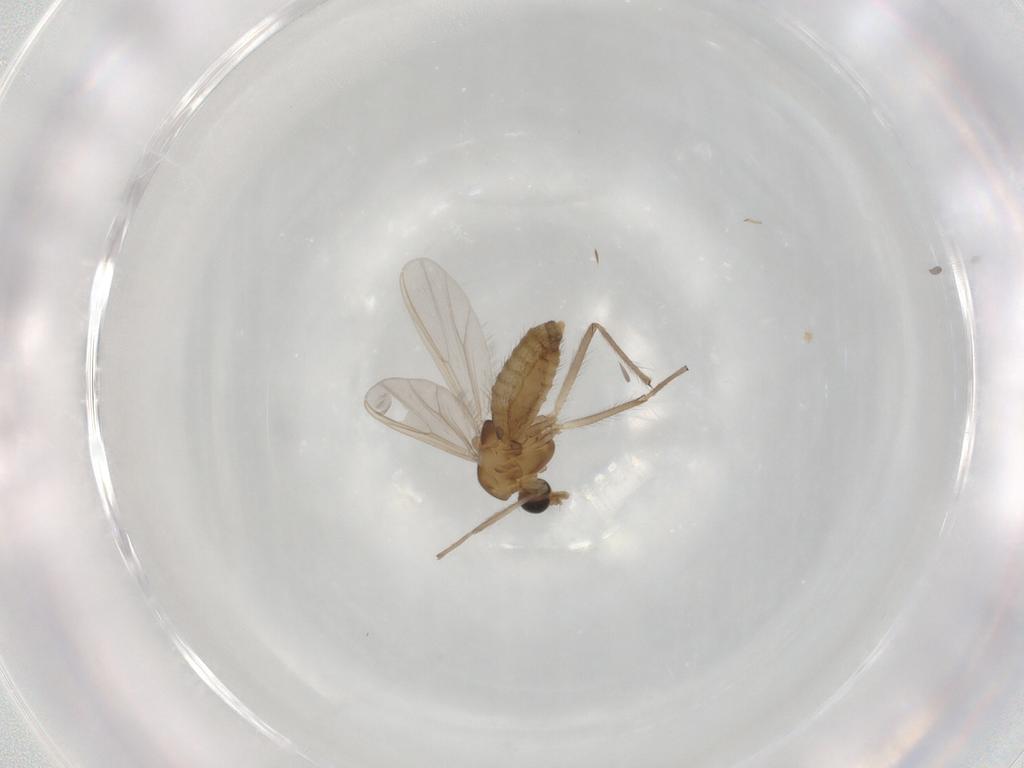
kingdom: Animalia
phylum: Arthropoda
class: Insecta
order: Diptera
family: Chironomidae
